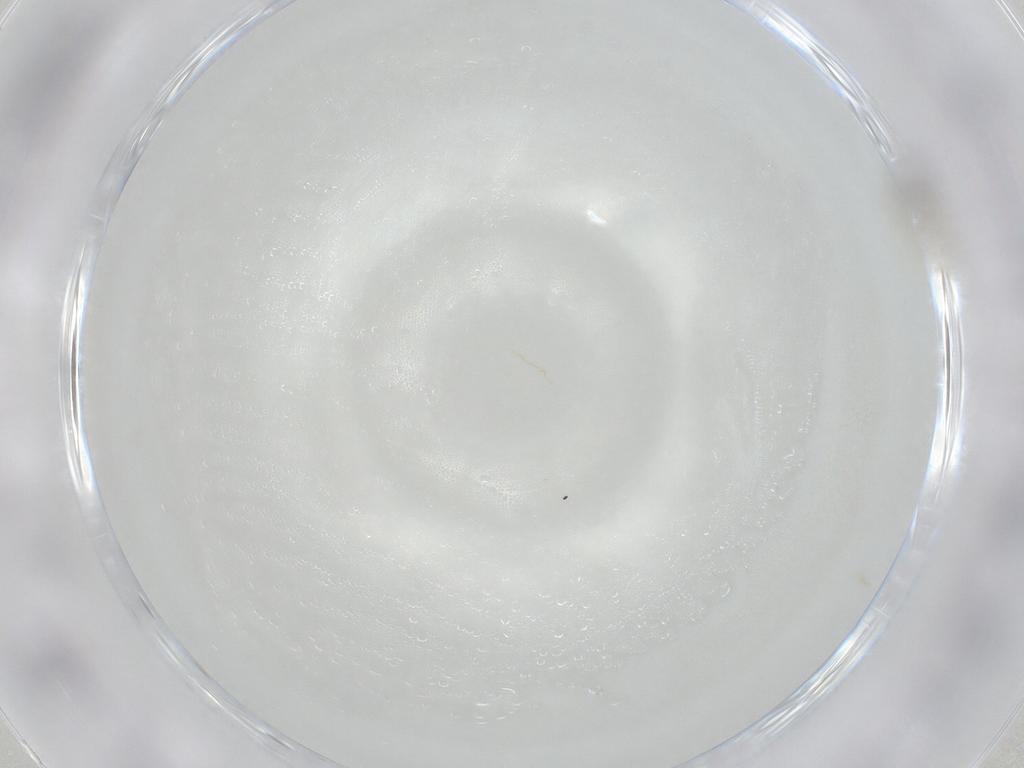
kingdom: Animalia
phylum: Arthropoda
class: Insecta
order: Diptera
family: Cecidomyiidae
